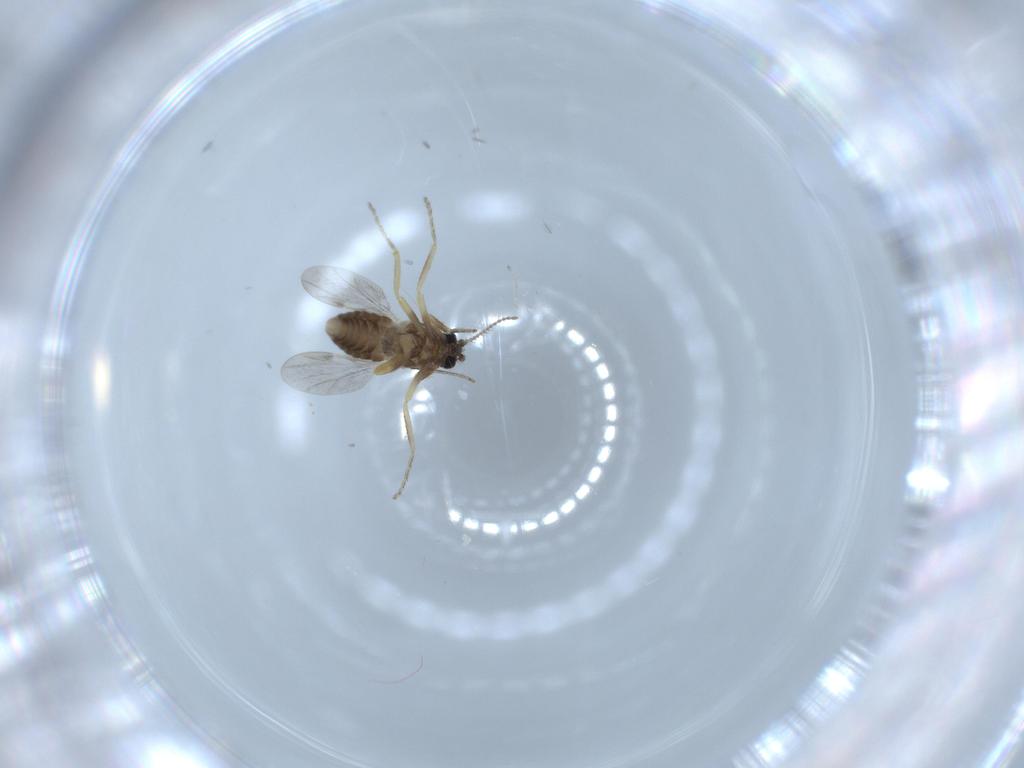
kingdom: Animalia
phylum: Arthropoda
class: Insecta
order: Diptera
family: Ceratopogonidae
